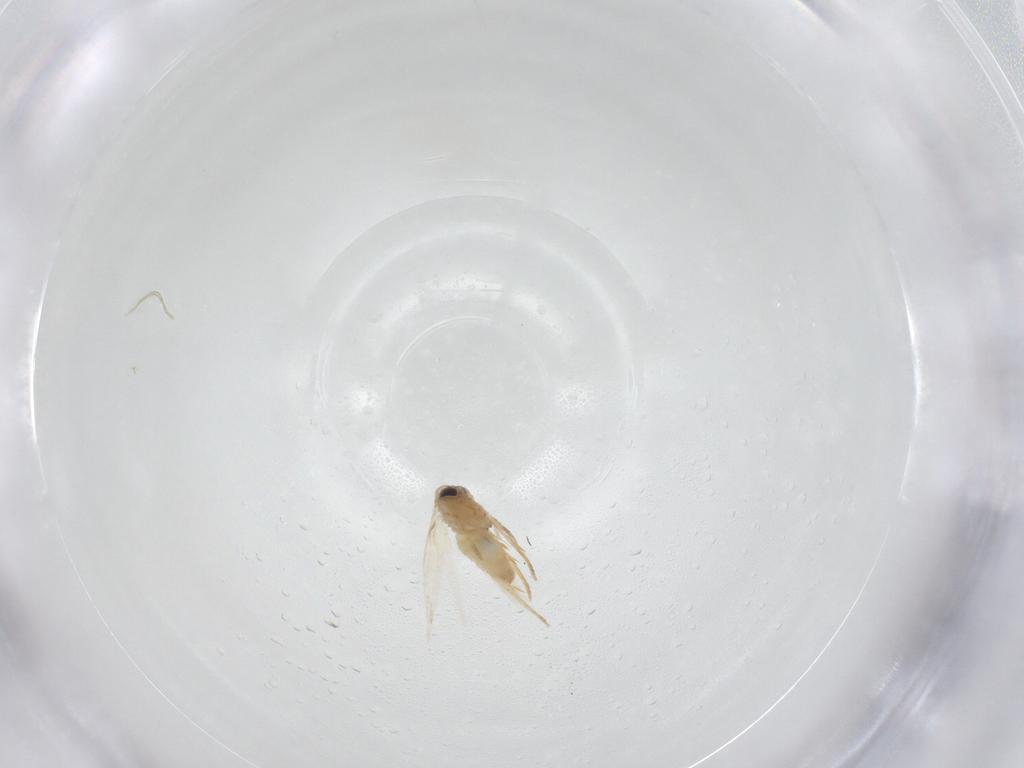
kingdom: Animalia
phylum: Arthropoda
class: Insecta
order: Lepidoptera
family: Crambidae
